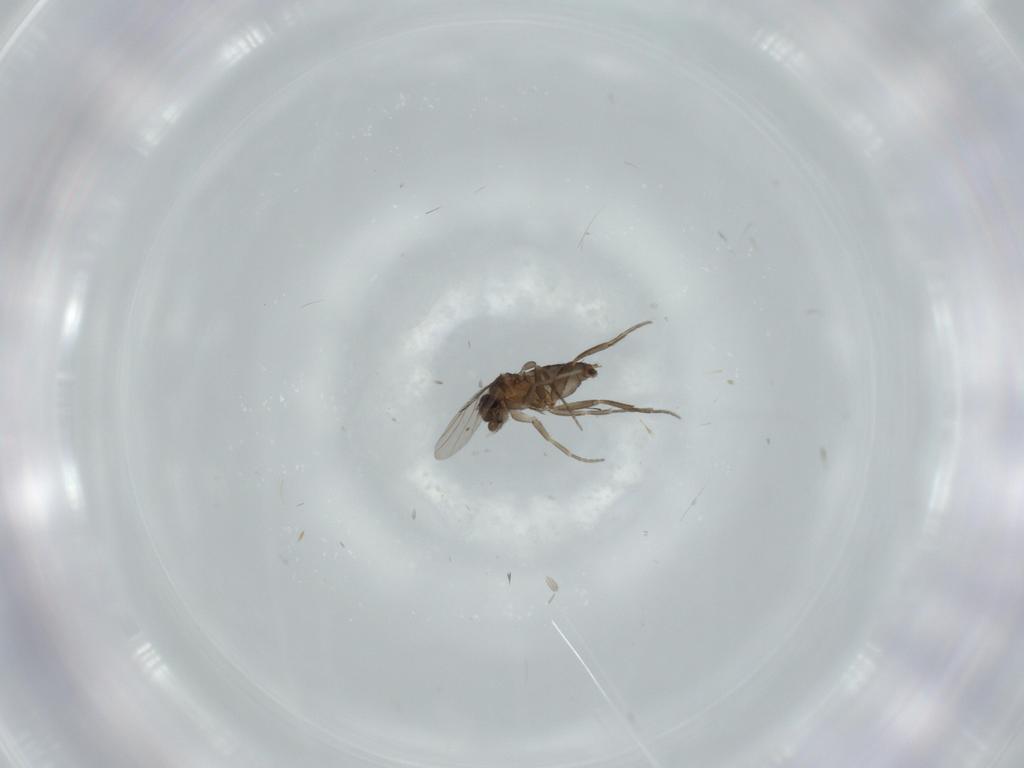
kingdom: Animalia
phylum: Arthropoda
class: Insecta
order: Diptera
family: Cecidomyiidae
